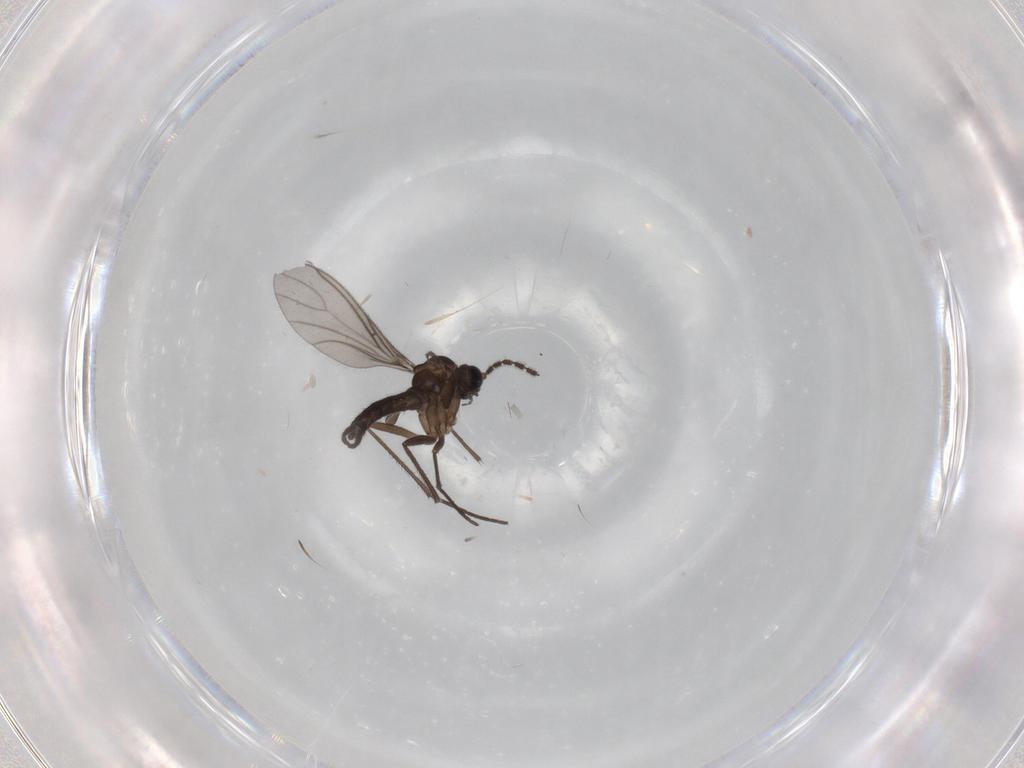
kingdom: Animalia
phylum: Arthropoda
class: Insecta
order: Diptera
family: Sciaridae
